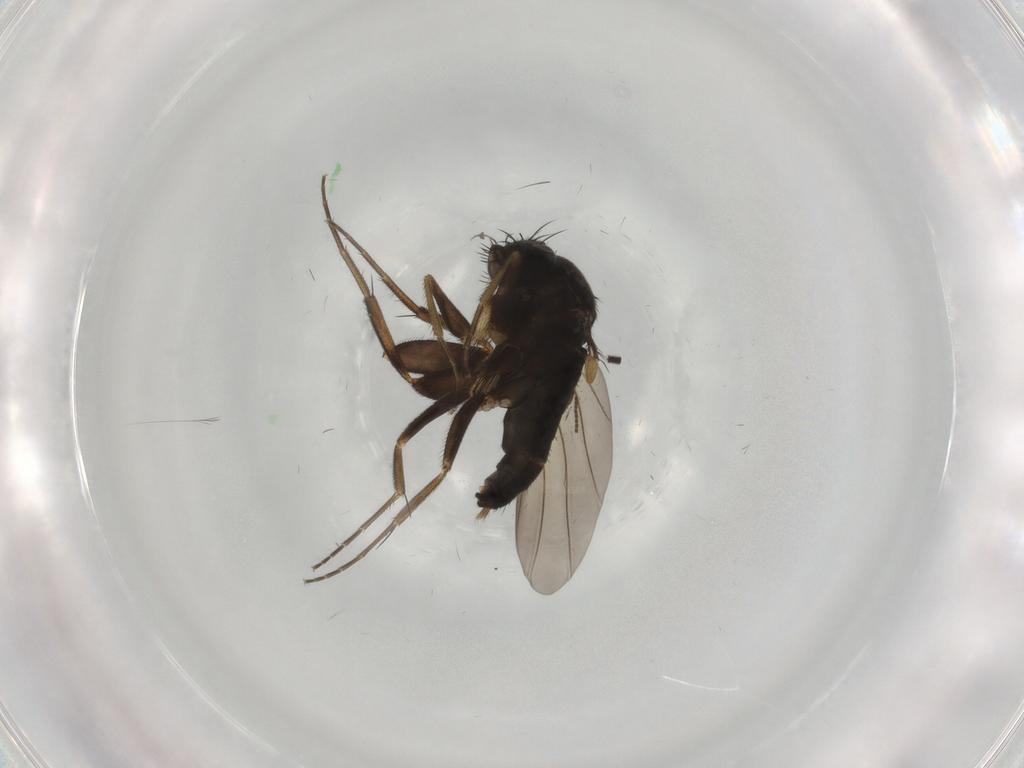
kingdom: Animalia
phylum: Arthropoda
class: Insecta
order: Diptera
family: Phoridae
